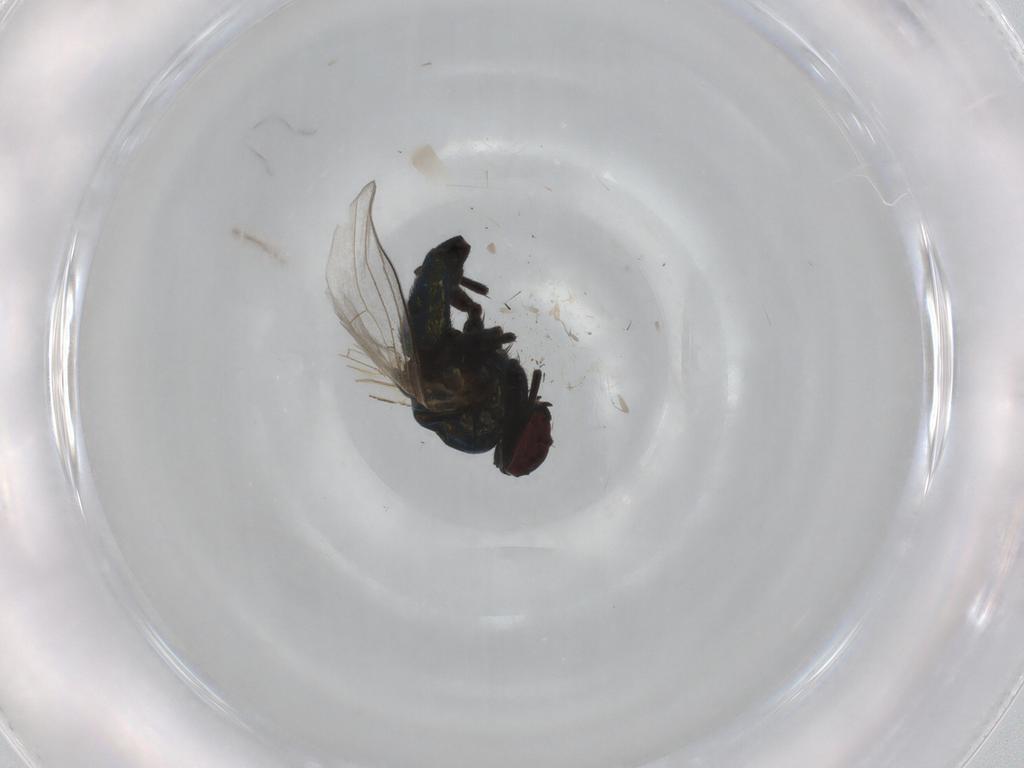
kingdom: Animalia
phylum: Arthropoda
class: Insecta
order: Diptera
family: Agromyzidae
